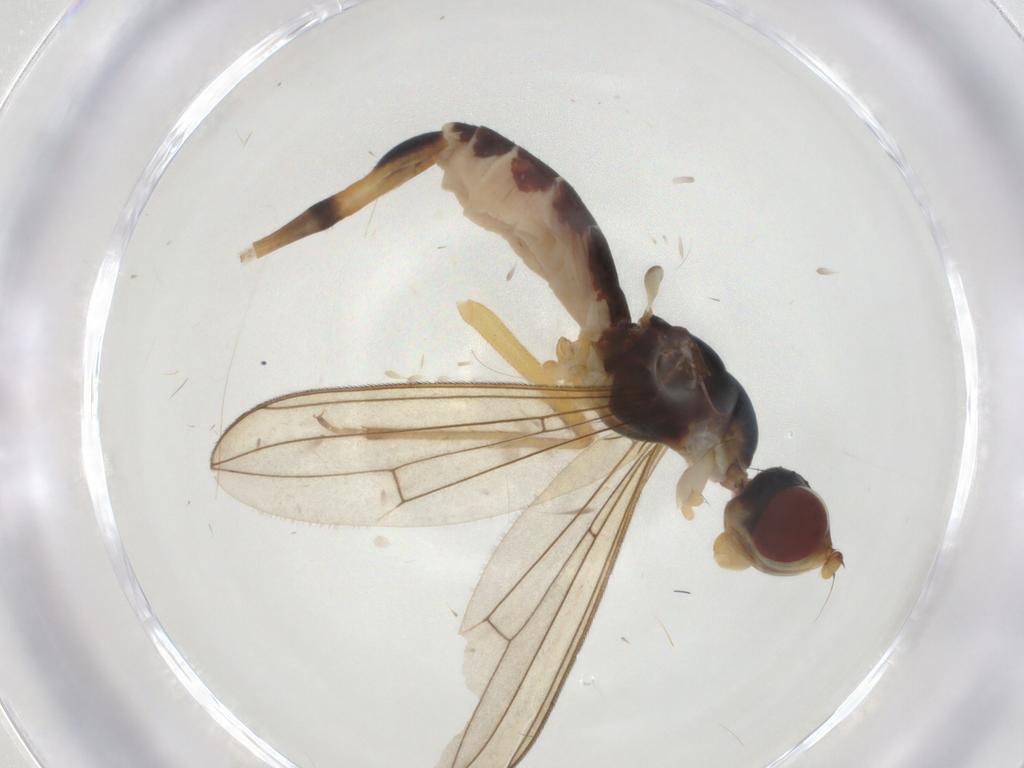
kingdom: Animalia
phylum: Arthropoda
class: Insecta
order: Diptera
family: Micropezidae
